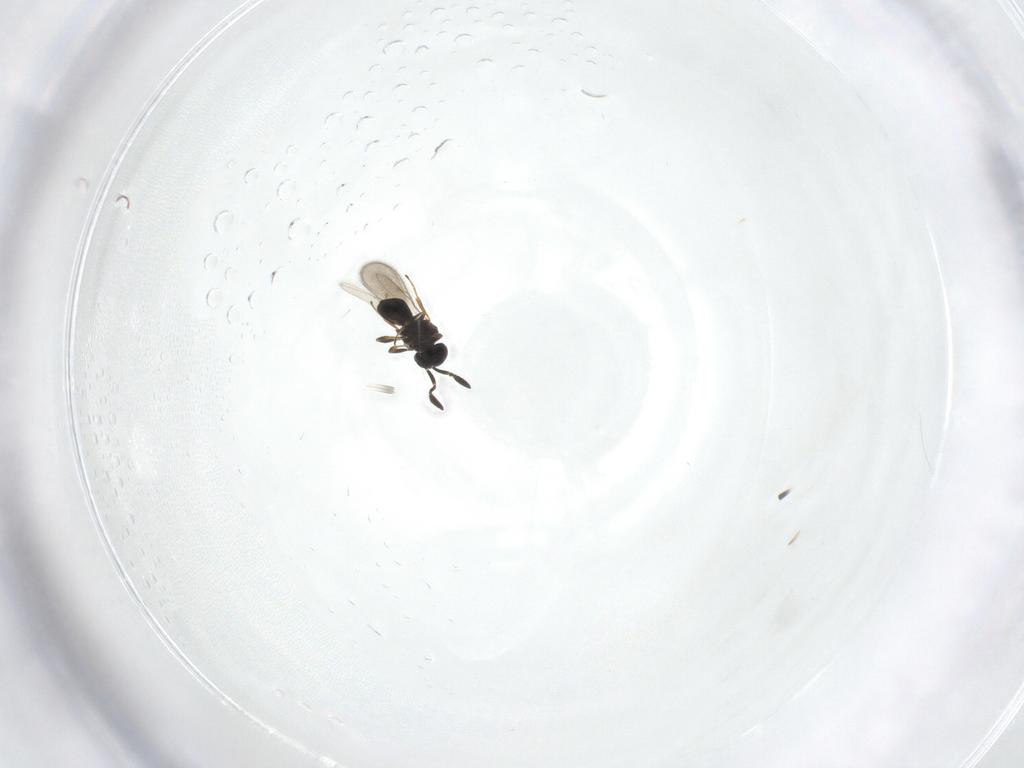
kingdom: Animalia
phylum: Arthropoda
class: Insecta
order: Hymenoptera
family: Scelionidae
